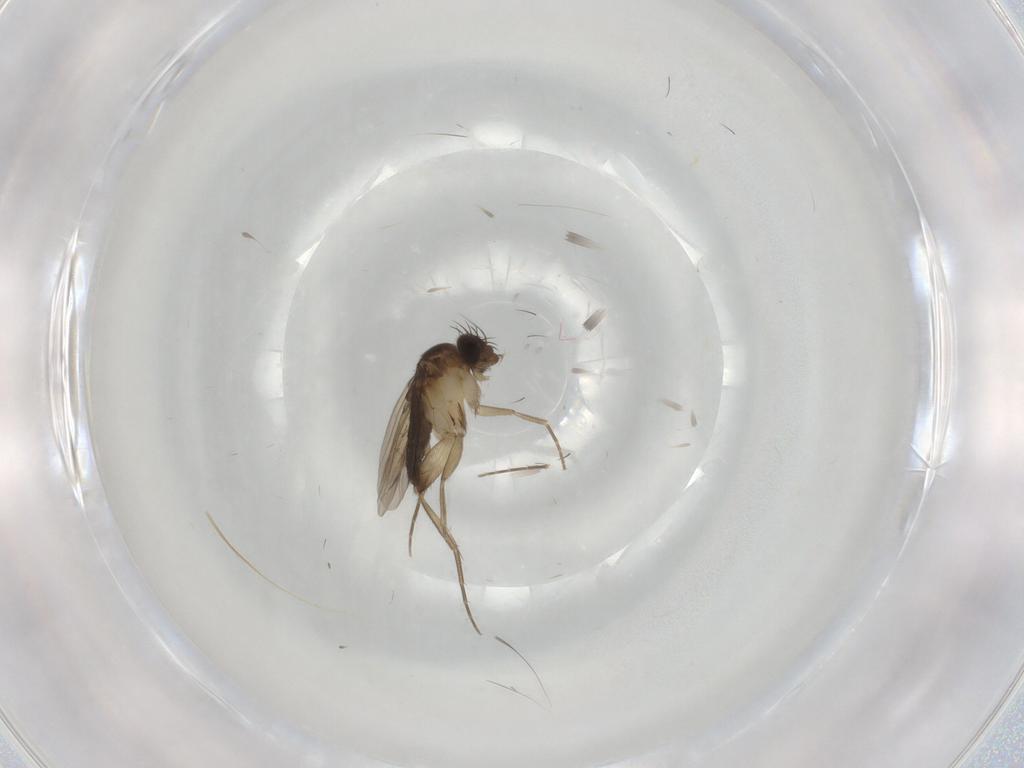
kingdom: Animalia
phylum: Arthropoda
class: Insecta
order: Diptera
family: Phoridae
